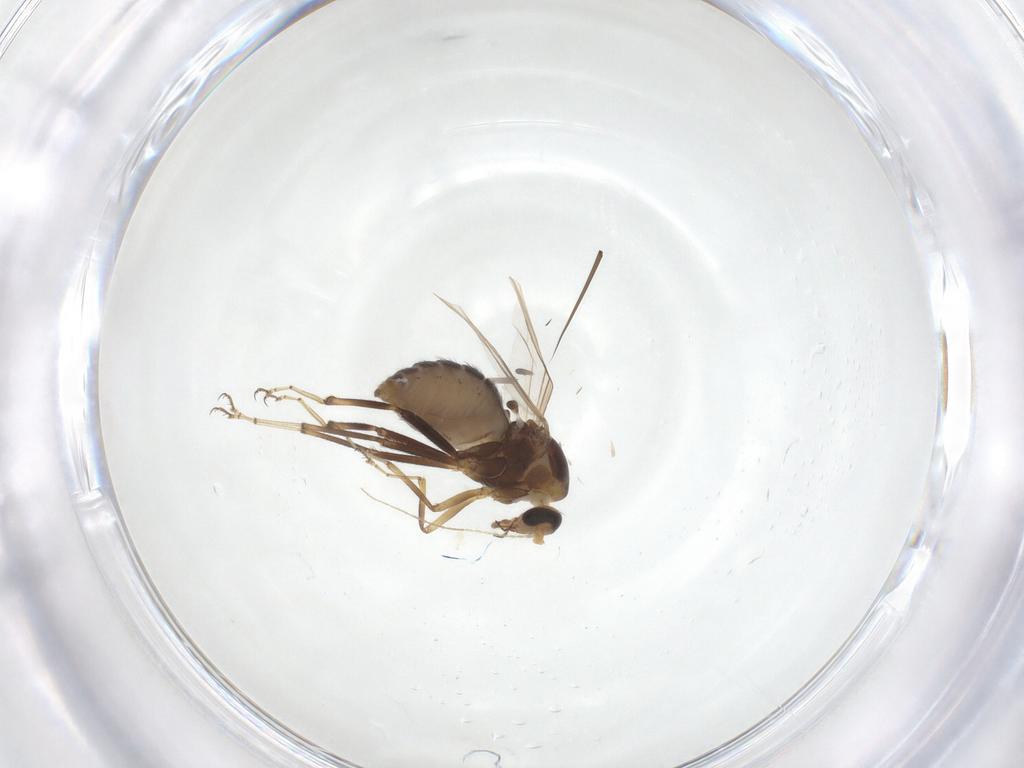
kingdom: Animalia
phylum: Arthropoda
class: Insecta
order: Diptera
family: Ceratopogonidae
